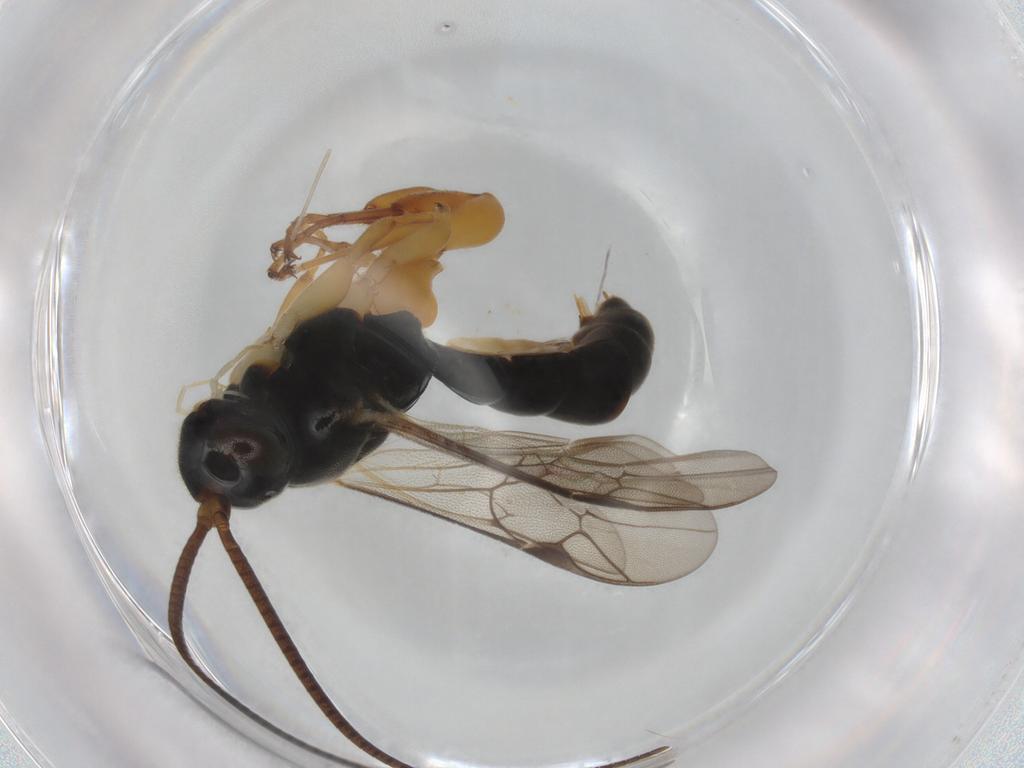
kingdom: Animalia
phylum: Arthropoda
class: Insecta
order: Hymenoptera
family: Ichneumonidae
